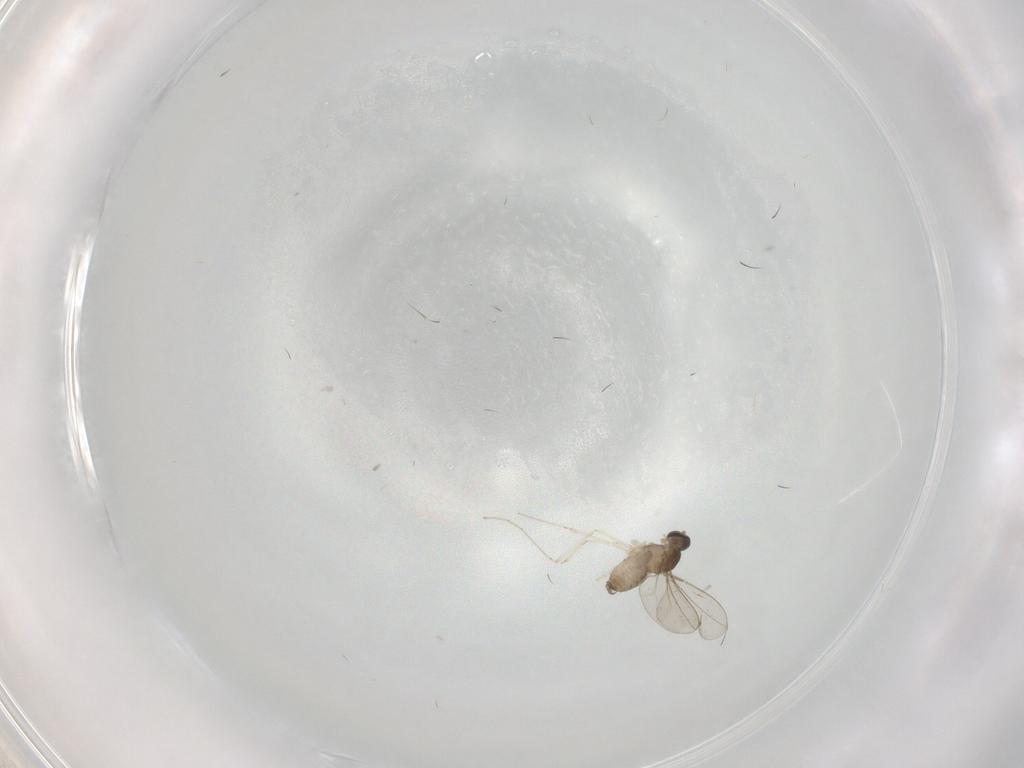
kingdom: Animalia
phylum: Arthropoda
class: Insecta
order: Diptera
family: Cecidomyiidae
